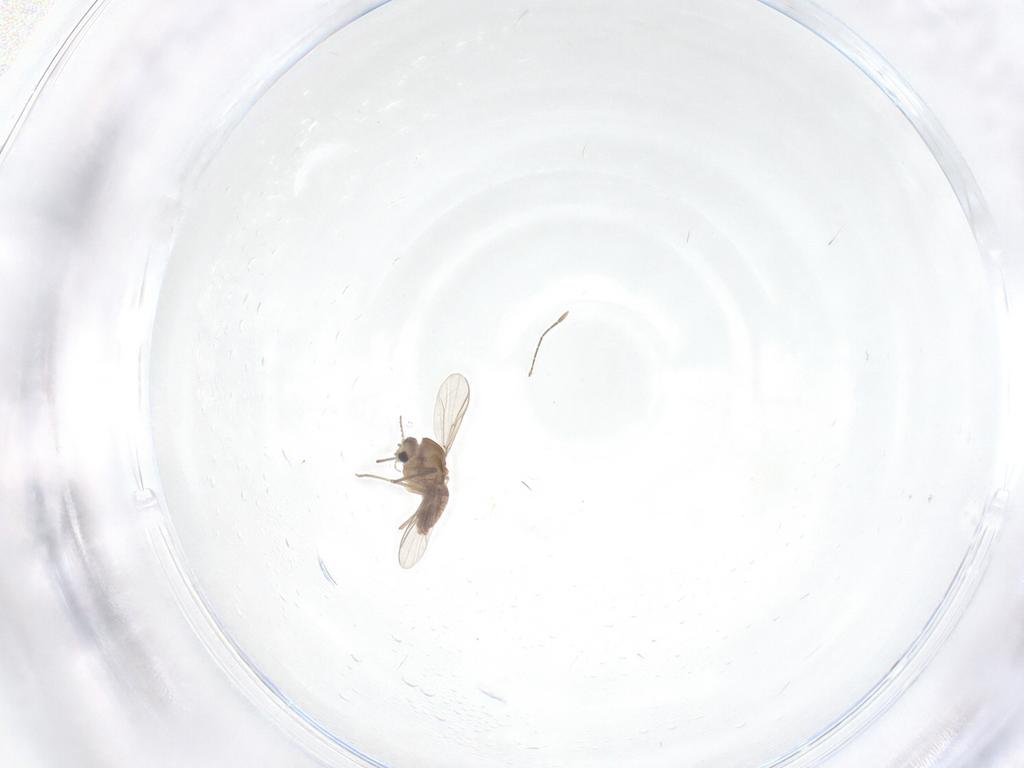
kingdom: Animalia
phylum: Arthropoda
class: Insecta
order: Diptera
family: Chironomidae
